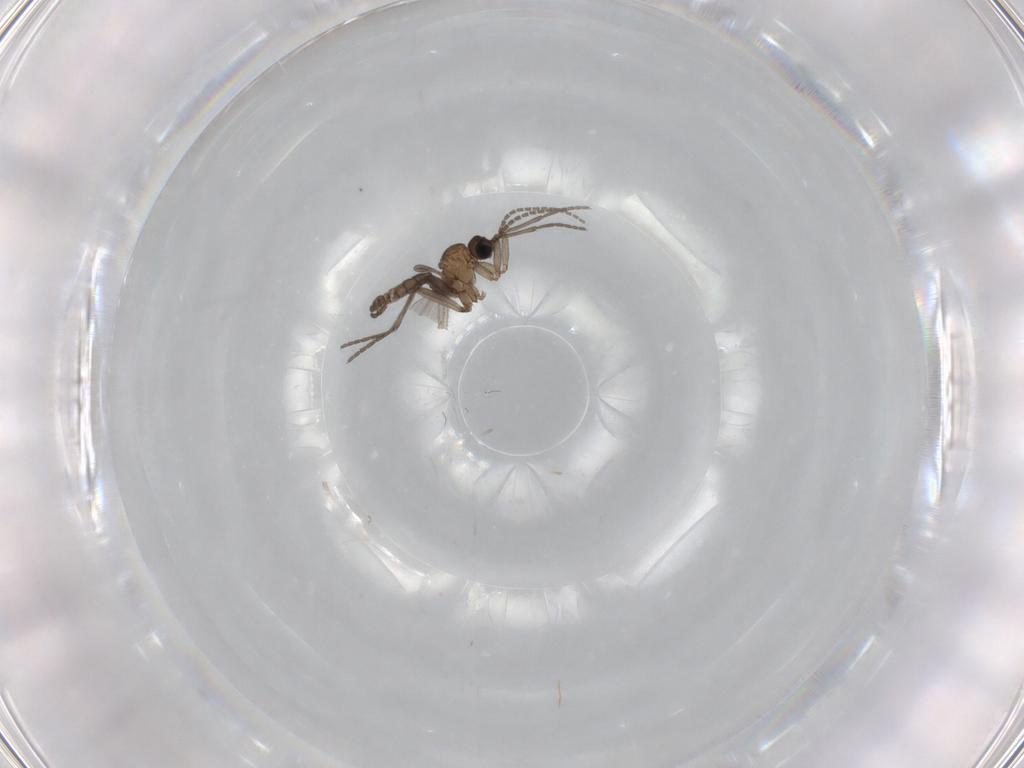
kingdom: Animalia
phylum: Arthropoda
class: Insecta
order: Diptera
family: Sciaridae
